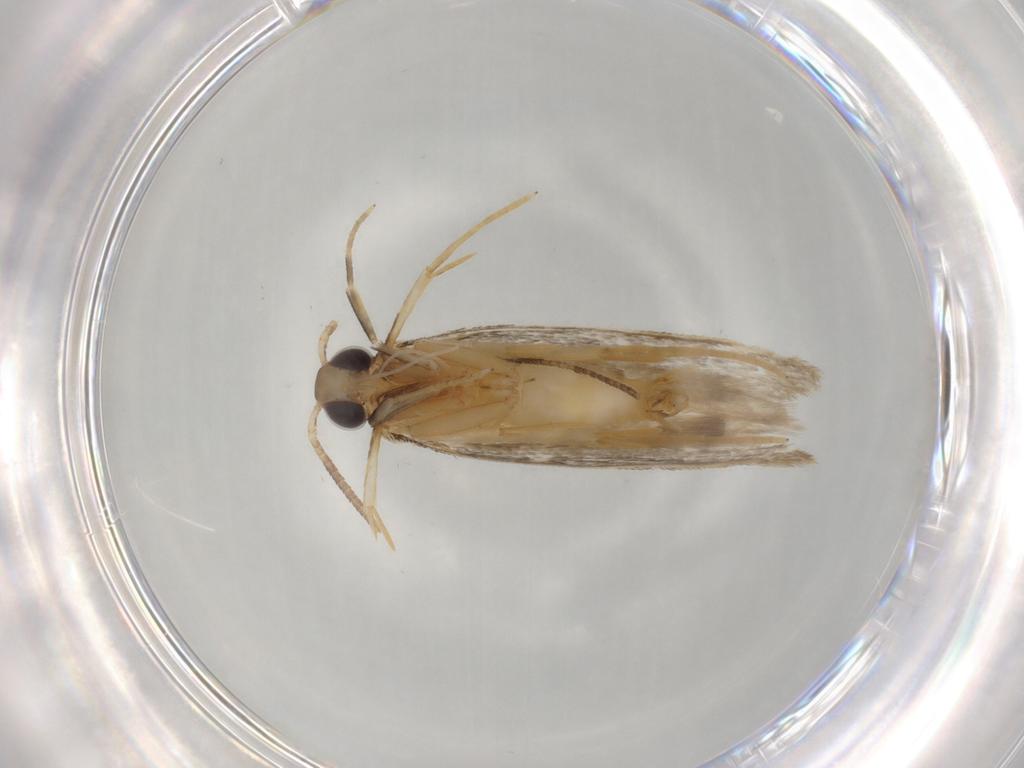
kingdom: Animalia
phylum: Arthropoda
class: Insecta
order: Lepidoptera
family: Autostichidae
